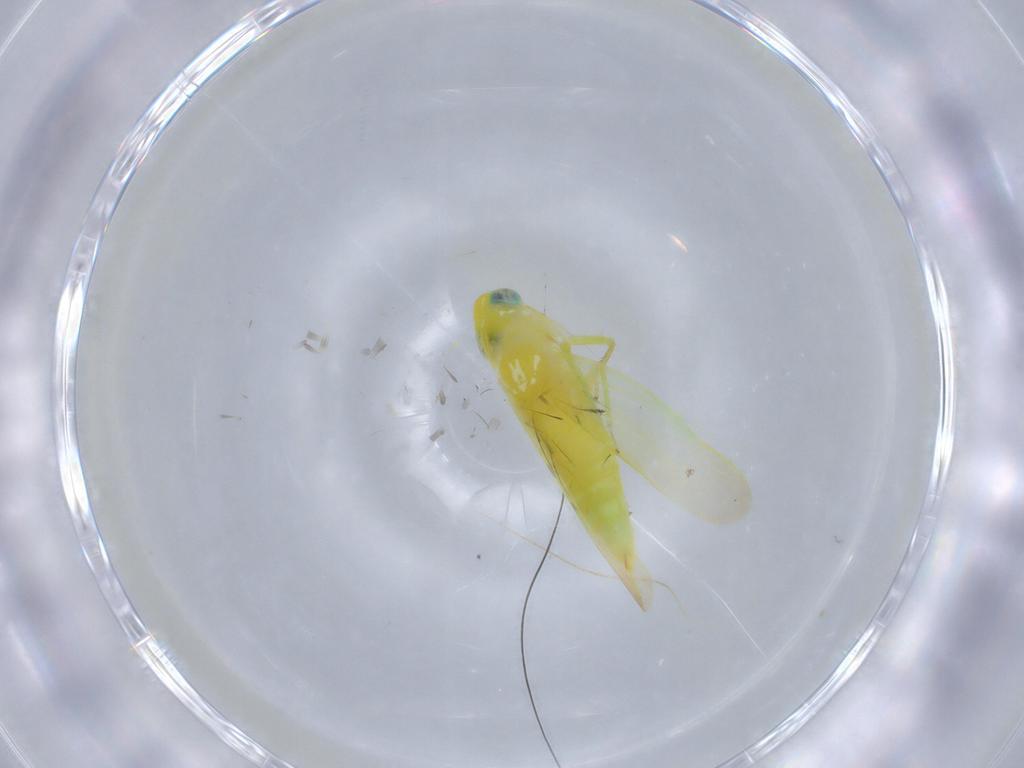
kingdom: Animalia
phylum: Arthropoda
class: Insecta
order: Hemiptera
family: Cicadellidae
